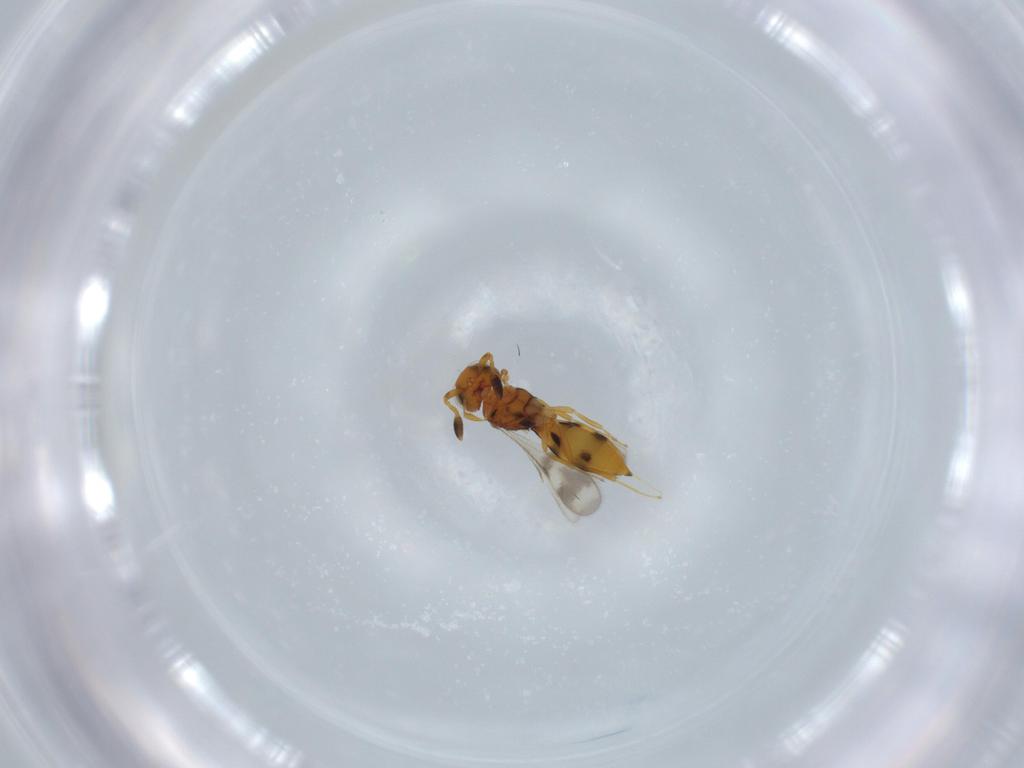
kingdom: Animalia
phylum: Arthropoda
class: Insecta
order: Hymenoptera
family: Scelionidae
